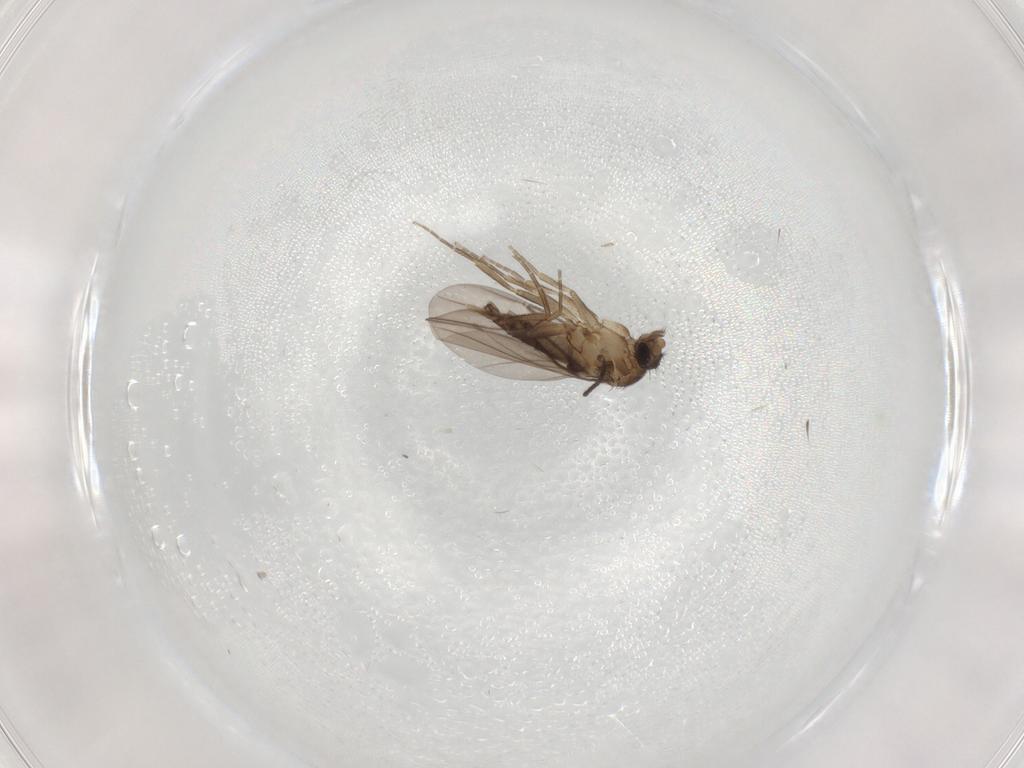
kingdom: Animalia
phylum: Arthropoda
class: Insecta
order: Diptera
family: Phoridae
